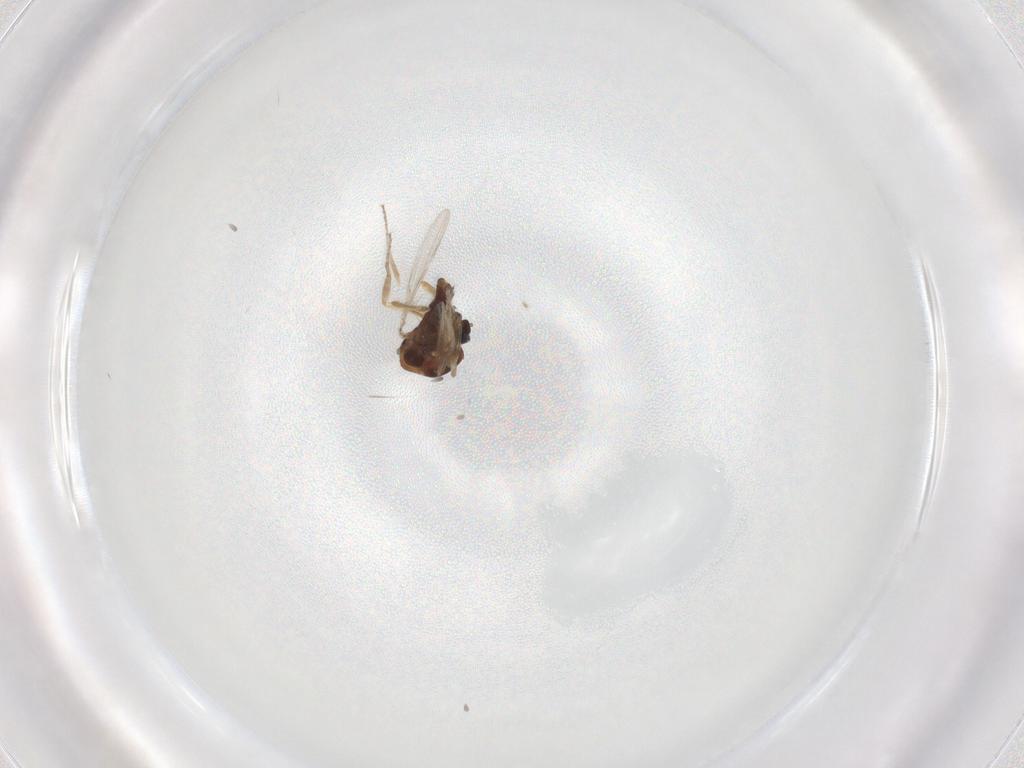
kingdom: Animalia
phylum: Arthropoda
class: Insecta
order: Diptera
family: Ceratopogonidae
